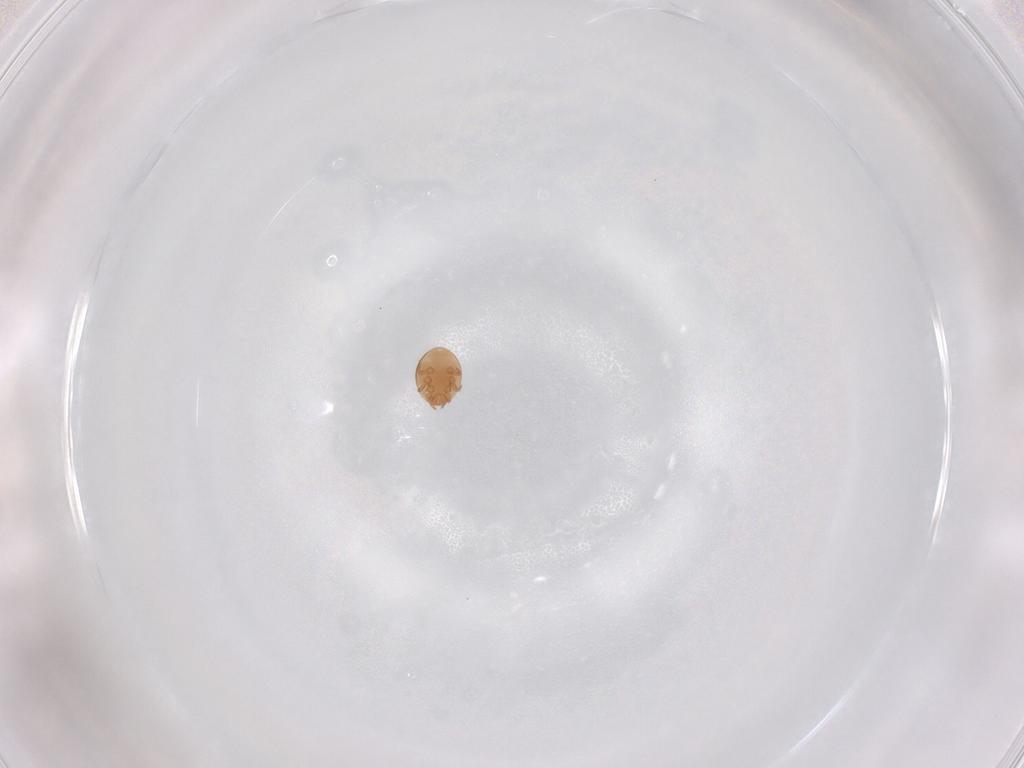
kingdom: Animalia
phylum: Arthropoda
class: Arachnida
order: Mesostigmata
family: Trematuridae
